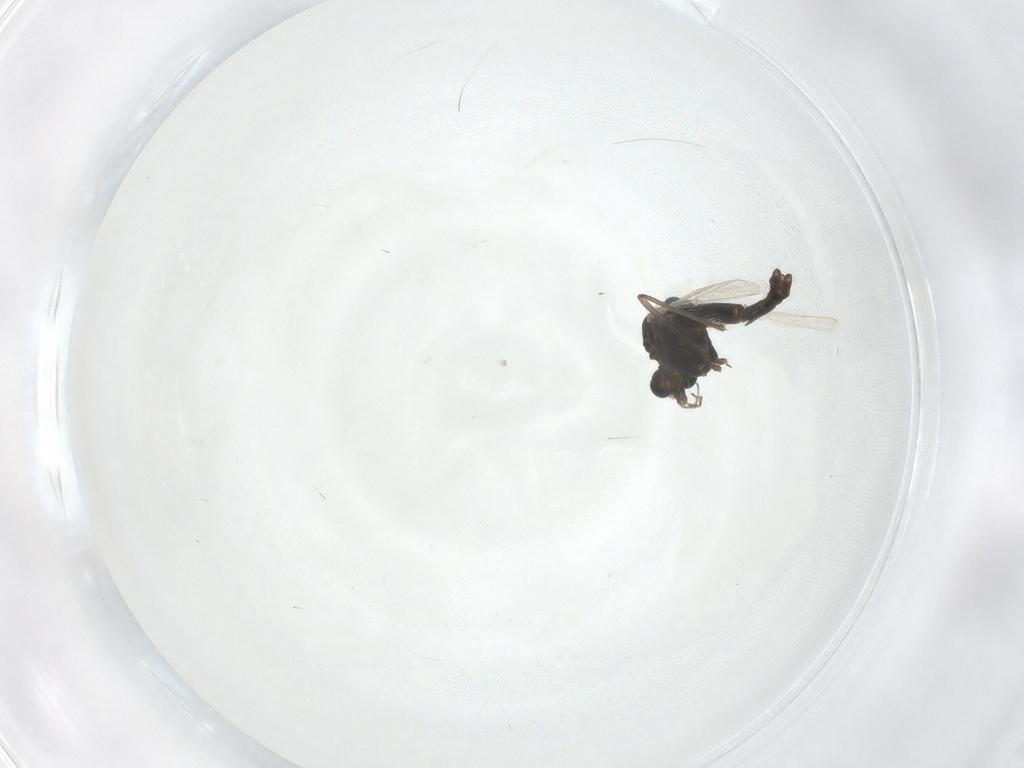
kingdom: Animalia
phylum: Arthropoda
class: Insecta
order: Diptera
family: Chironomidae
